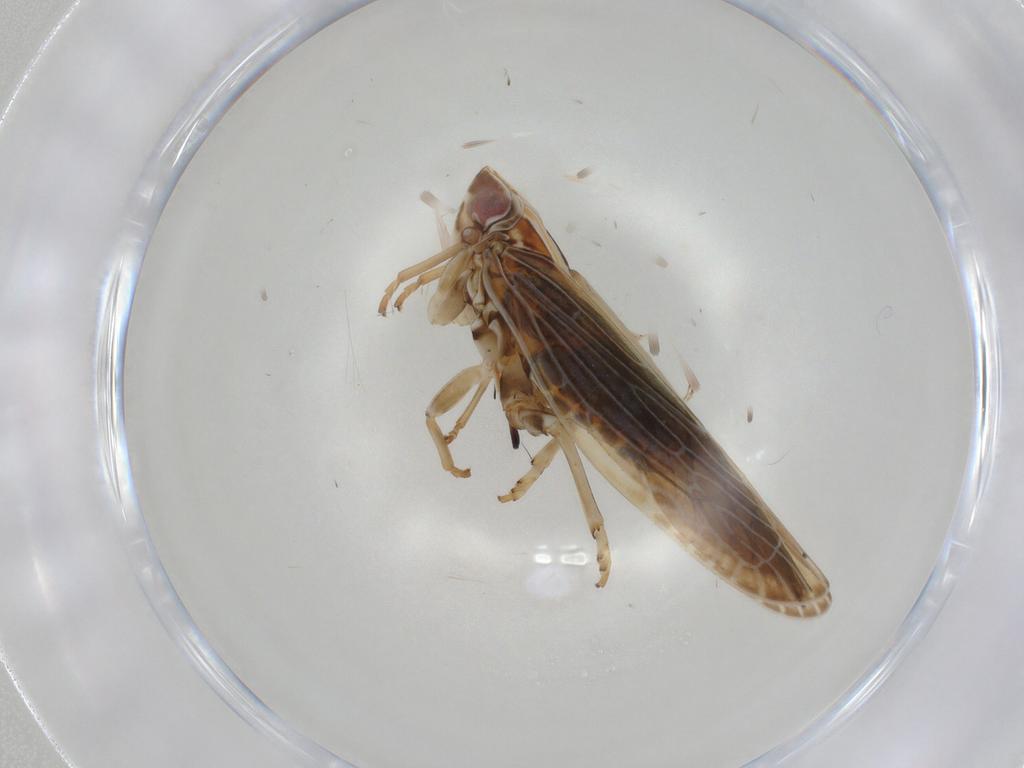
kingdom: Animalia
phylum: Arthropoda
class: Insecta
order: Hemiptera
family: Achilidae
